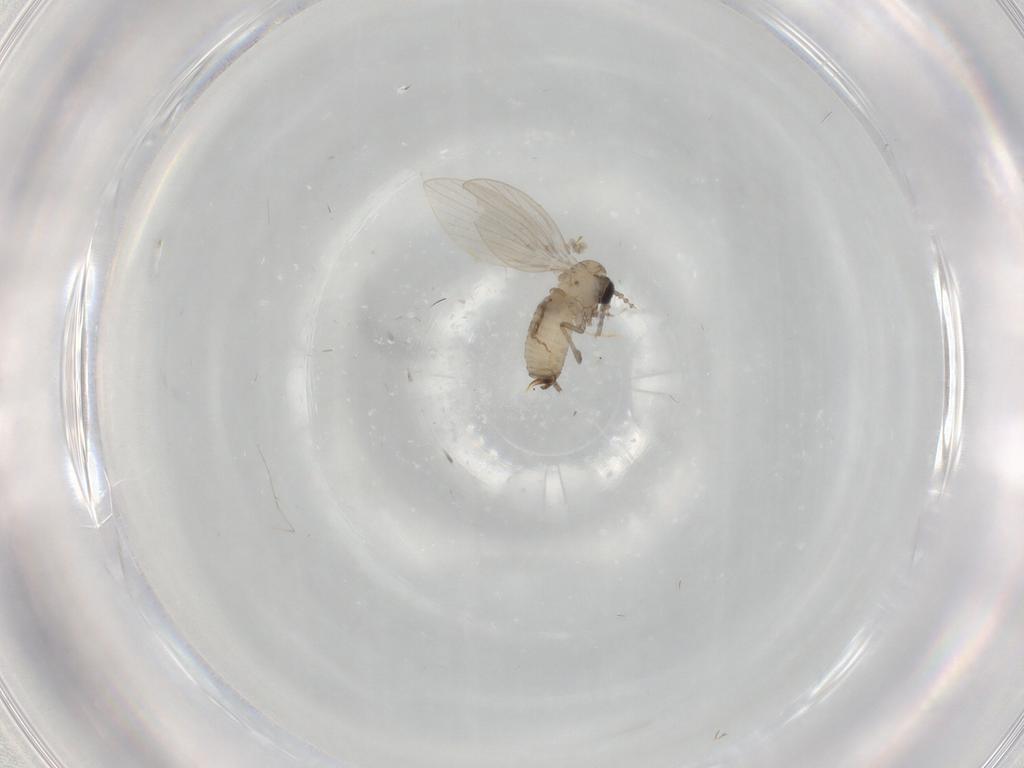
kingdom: Animalia
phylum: Arthropoda
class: Insecta
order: Diptera
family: Psychodidae
